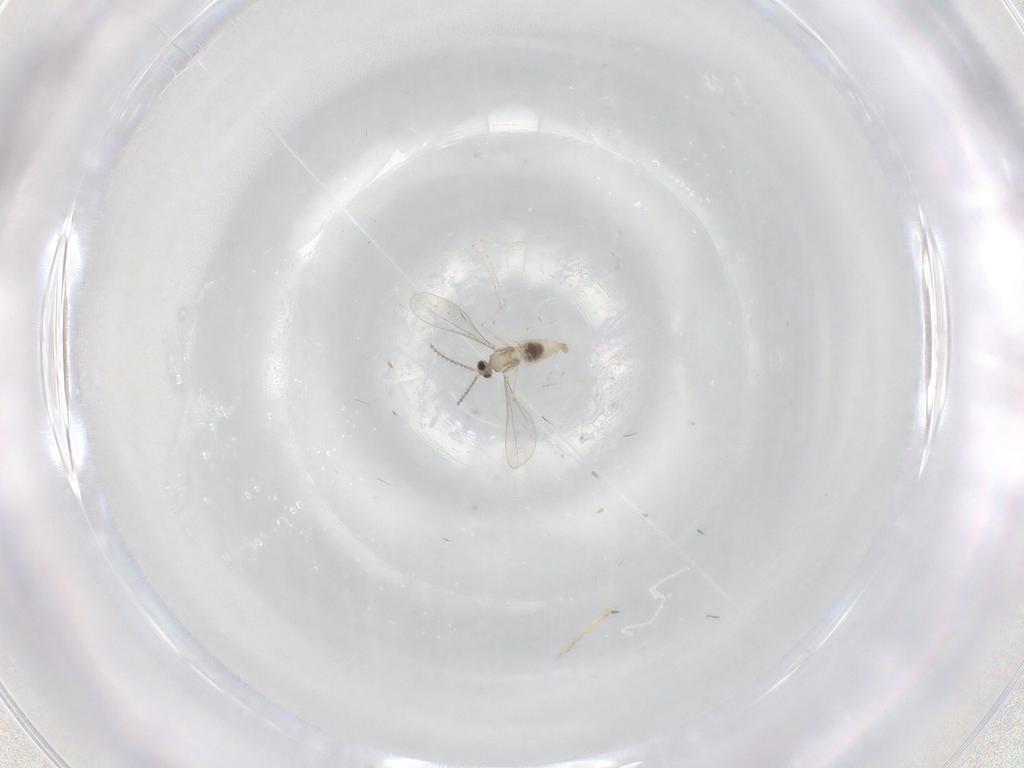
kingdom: Animalia
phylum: Arthropoda
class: Insecta
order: Diptera
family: Cecidomyiidae
